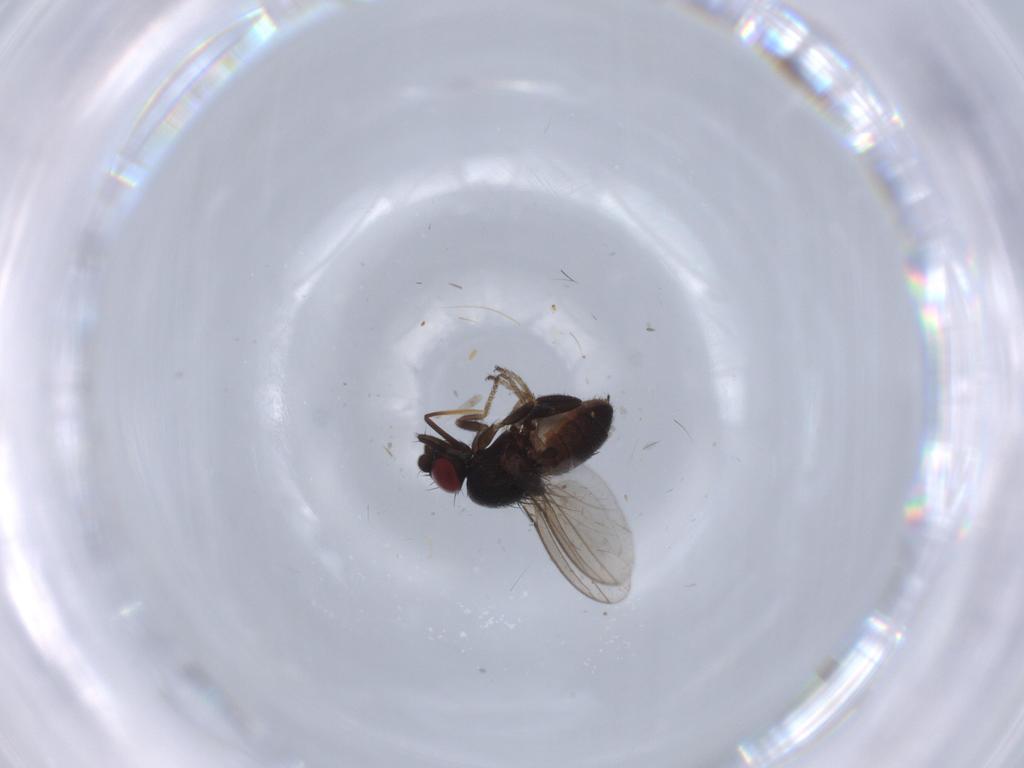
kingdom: Animalia
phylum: Arthropoda
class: Insecta
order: Diptera
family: Milichiidae
